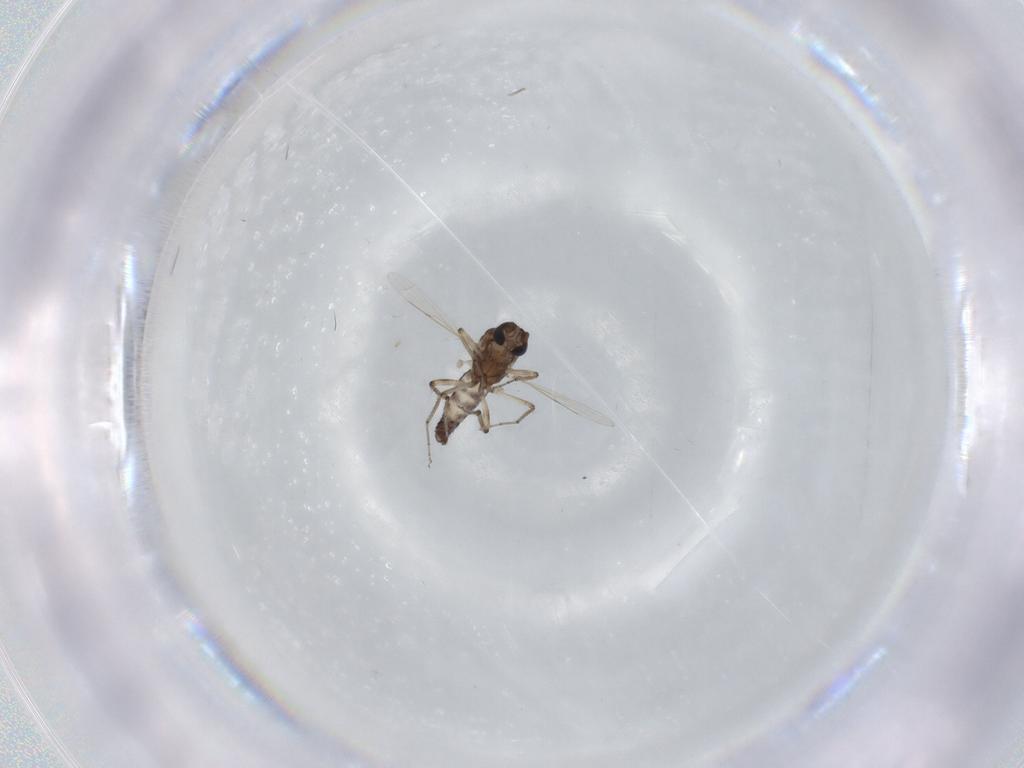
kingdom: Animalia
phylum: Arthropoda
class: Insecta
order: Diptera
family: Ceratopogonidae
